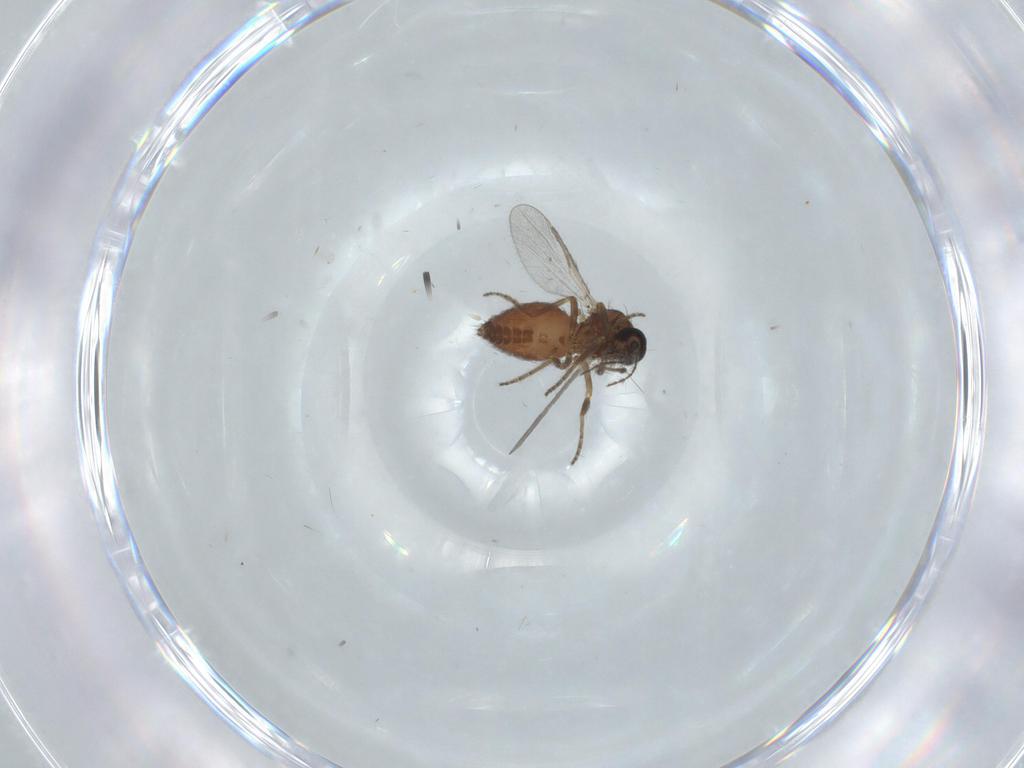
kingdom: Animalia
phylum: Arthropoda
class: Insecta
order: Diptera
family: Ceratopogonidae
